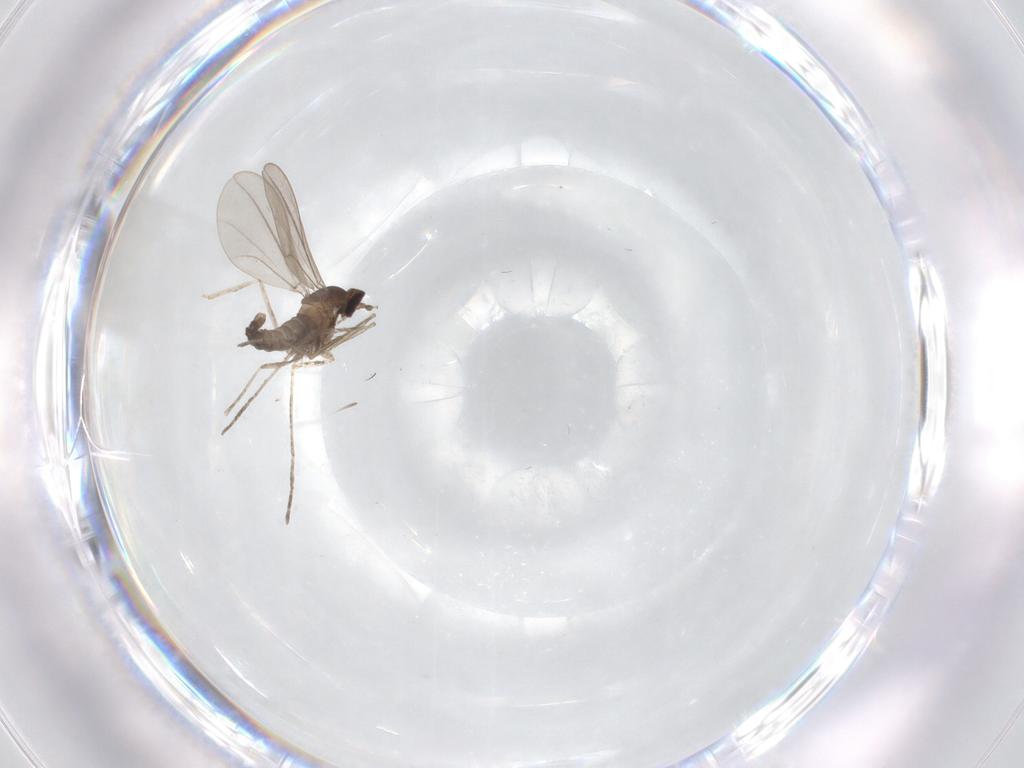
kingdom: Animalia
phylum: Arthropoda
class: Insecta
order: Diptera
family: Cecidomyiidae
